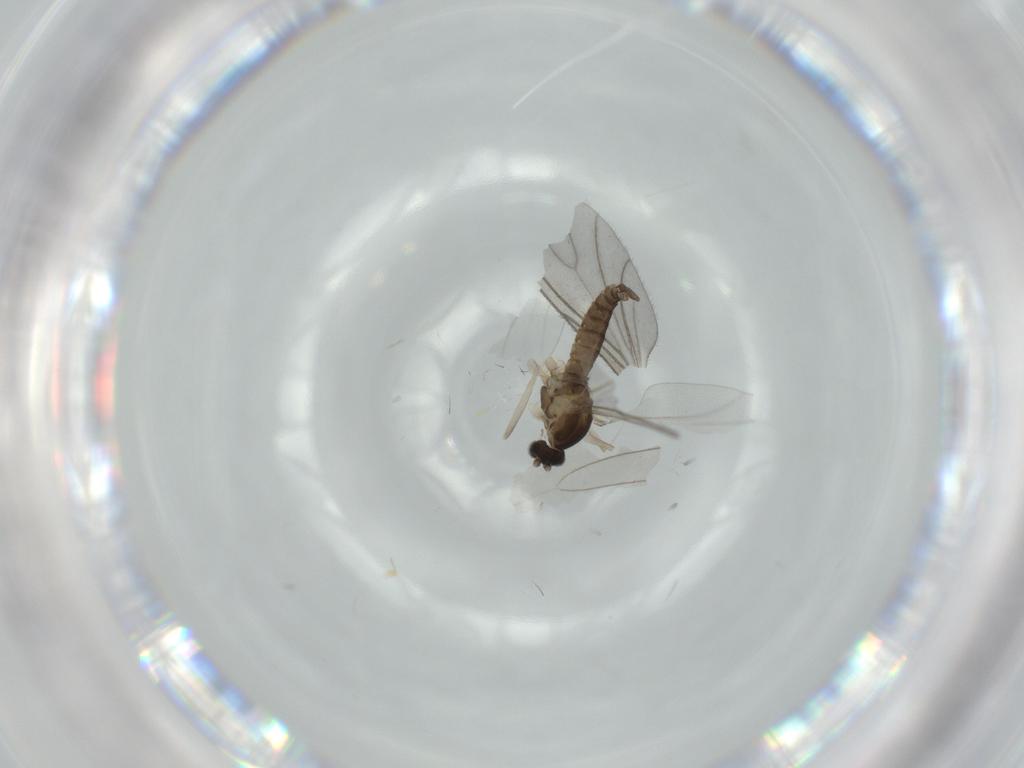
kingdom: Animalia
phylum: Arthropoda
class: Insecta
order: Diptera
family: Cecidomyiidae
